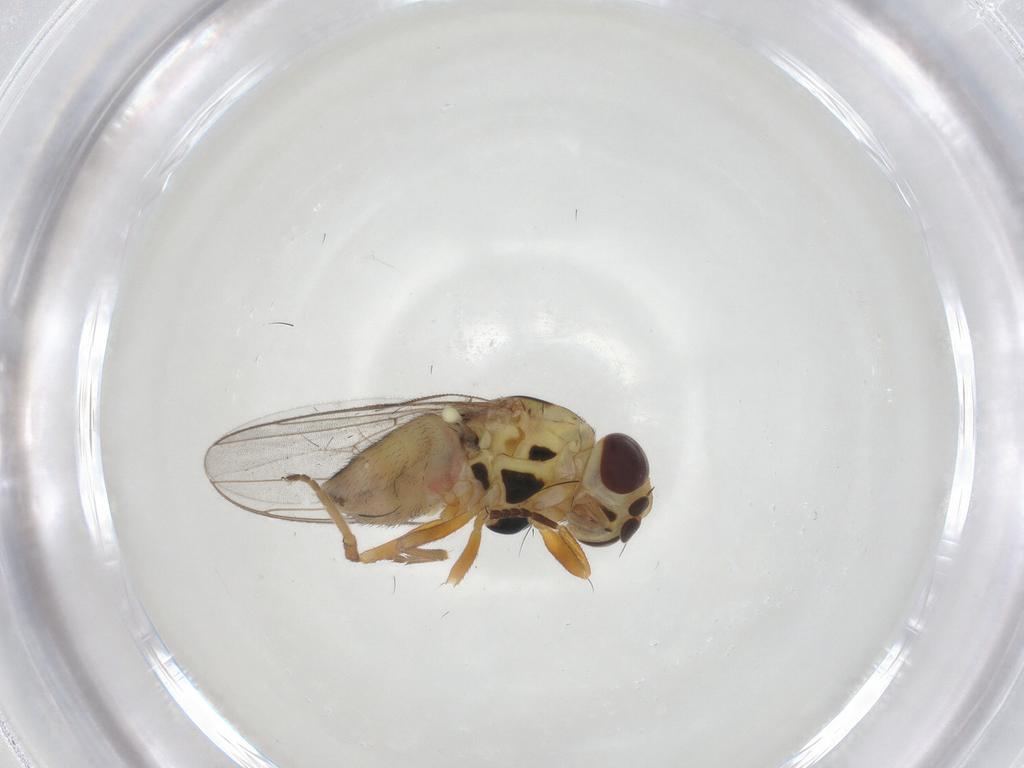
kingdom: Animalia
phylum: Arthropoda
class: Insecta
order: Diptera
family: Chloropidae
